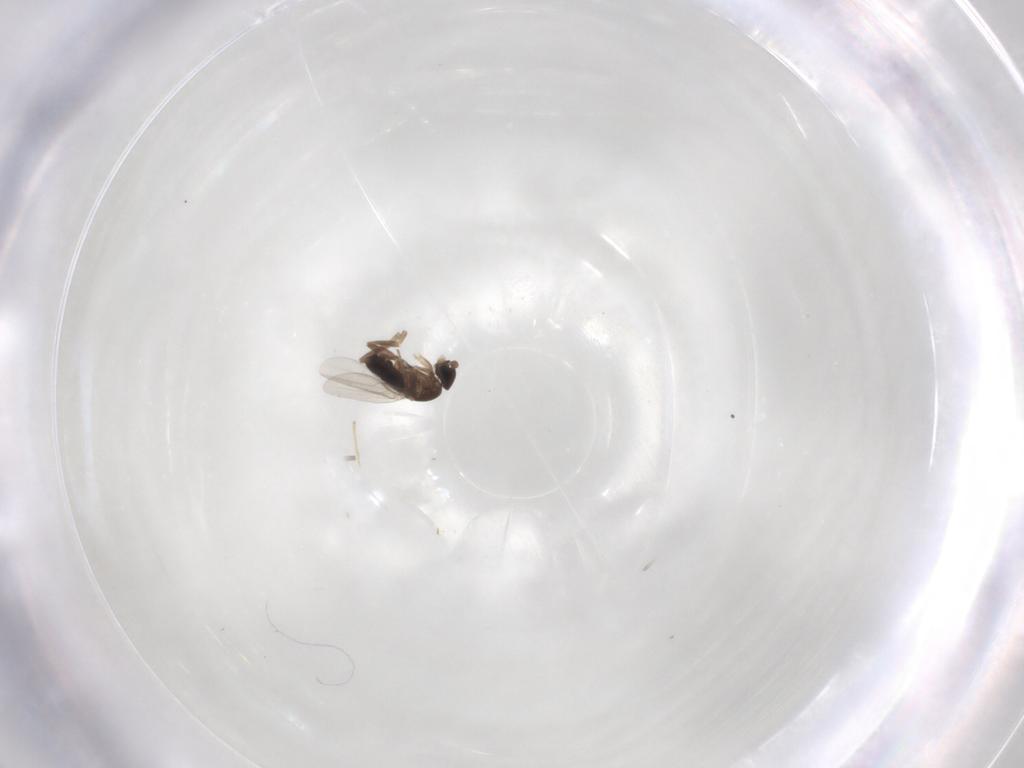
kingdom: Animalia
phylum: Arthropoda
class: Insecta
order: Diptera
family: Phoridae
